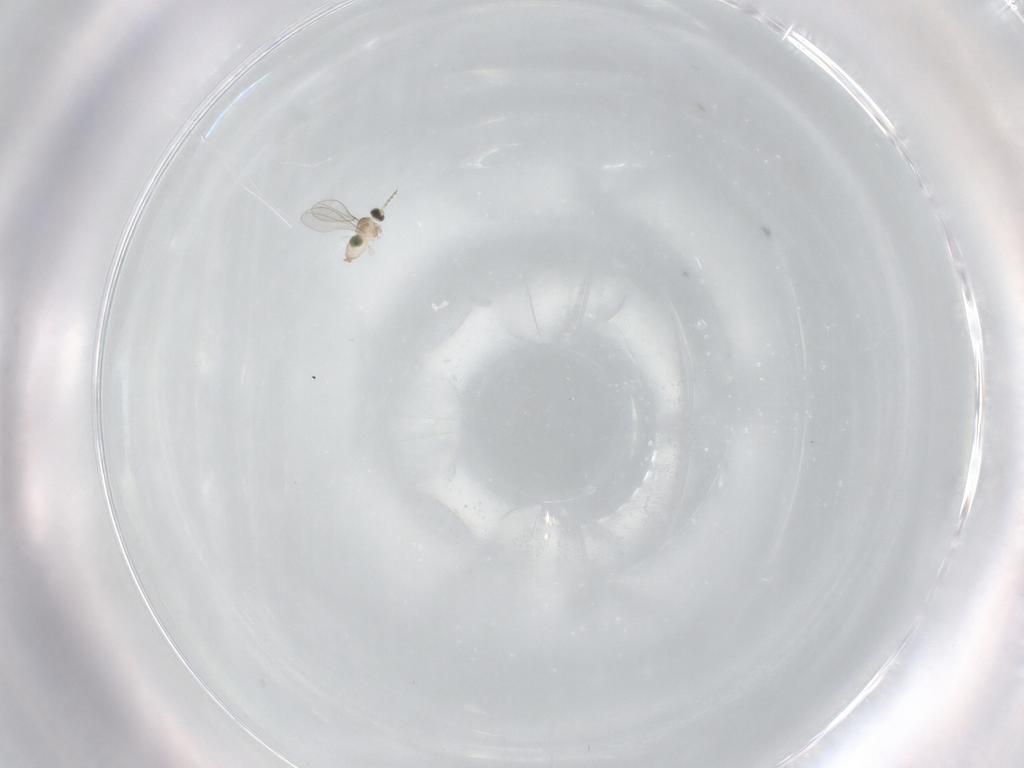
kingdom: Animalia
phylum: Arthropoda
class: Insecta
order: Diptera
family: Cecidomyiidae
